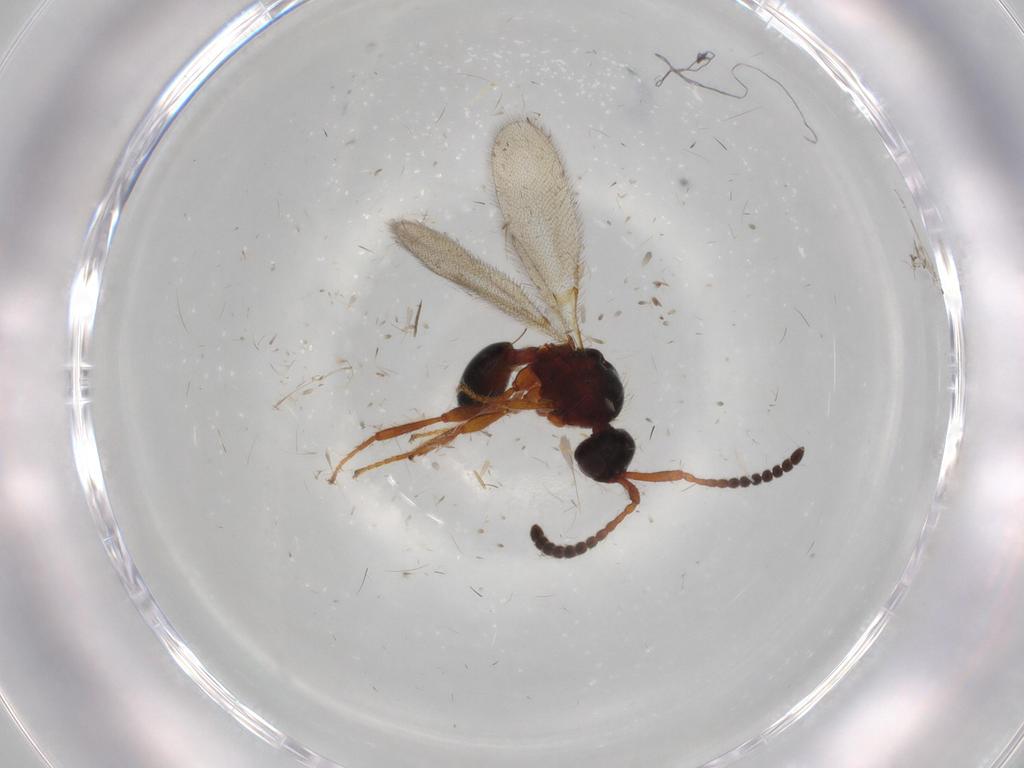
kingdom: Animalia
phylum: Arthropoda
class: Insecta
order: Hymenoptera
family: Diapriidae
